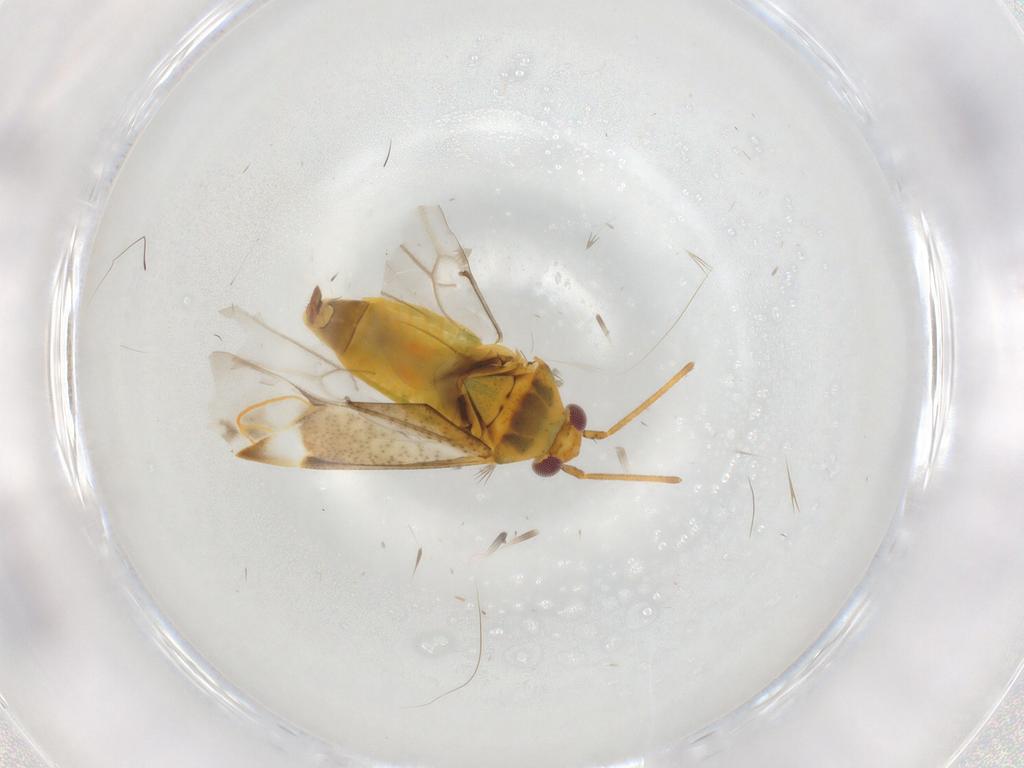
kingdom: Animalia
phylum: Arthropoda
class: Insecta
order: Hemiptera
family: Miridae
